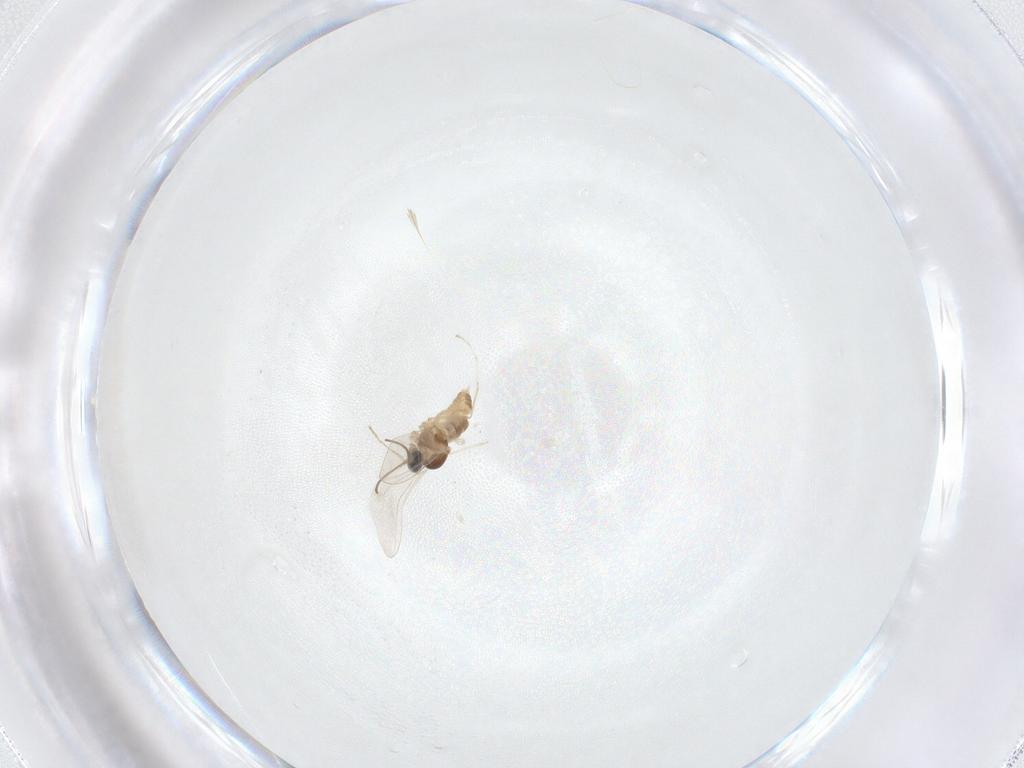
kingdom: Animalia
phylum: Arthropoda
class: Insecta
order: Diptera
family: Cecidomyiidae
